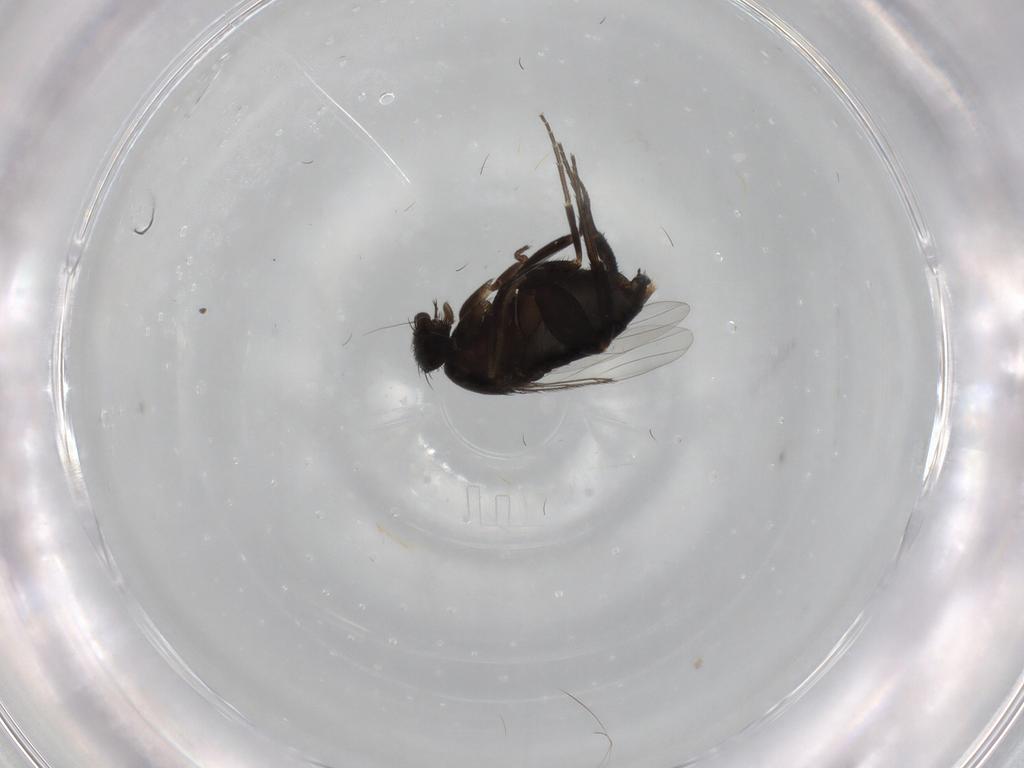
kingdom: Animalia
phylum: Arthropoda
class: Insecta
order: Diptera
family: Phoridae
